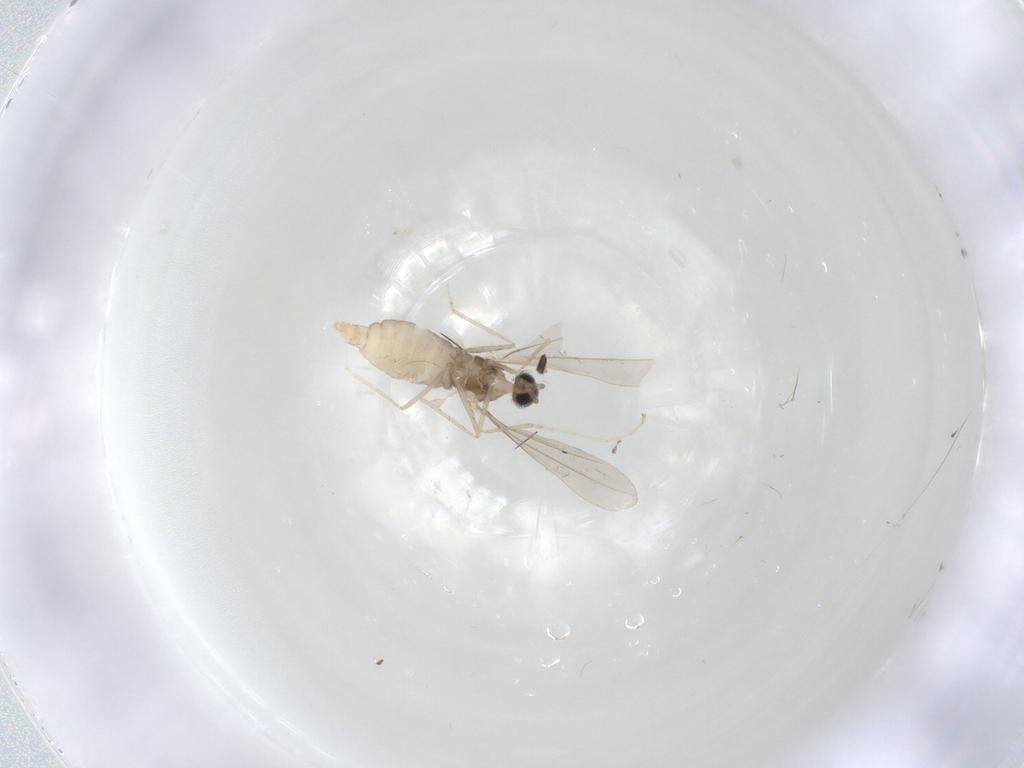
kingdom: Animalia
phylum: Arthropoda
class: Insecta
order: Diptera
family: Cecidomyiidae
